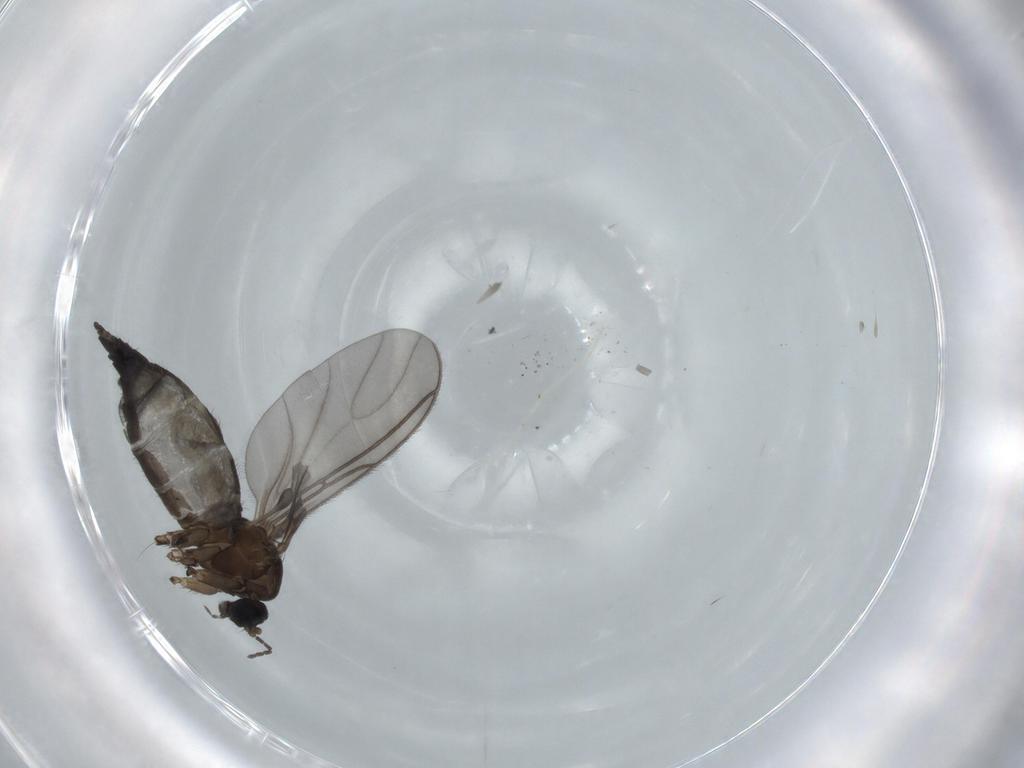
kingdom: Animalia
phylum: Arthropoda
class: Insecta
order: Diptera
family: Sciaridae
